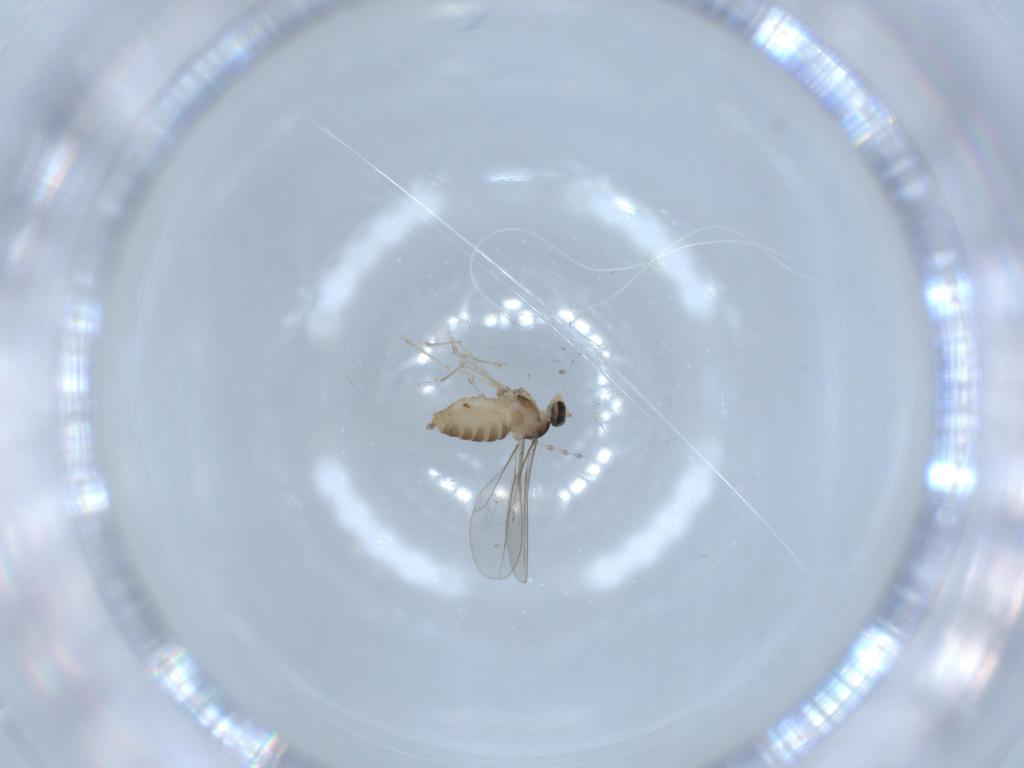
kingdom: Animalia
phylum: Arthropoda
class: Insecta
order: Diptera
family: Cecidomyiidae
